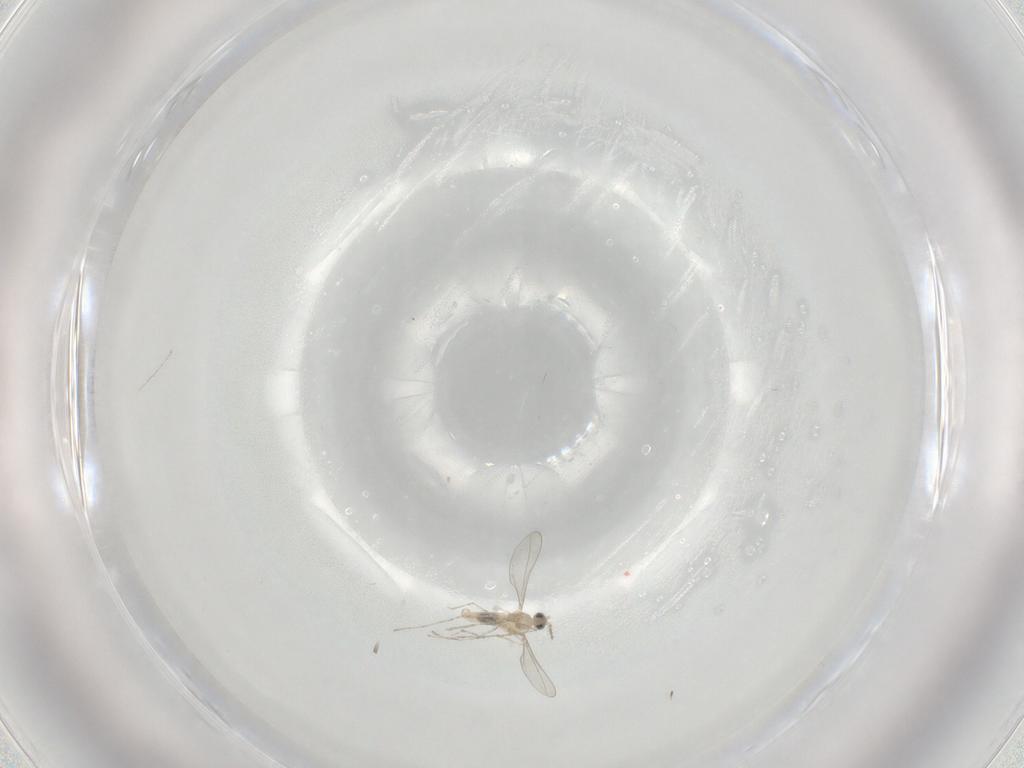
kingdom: Animalia
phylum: Arthropoda
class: Insecta
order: Diptera
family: Cecidomyiidae
